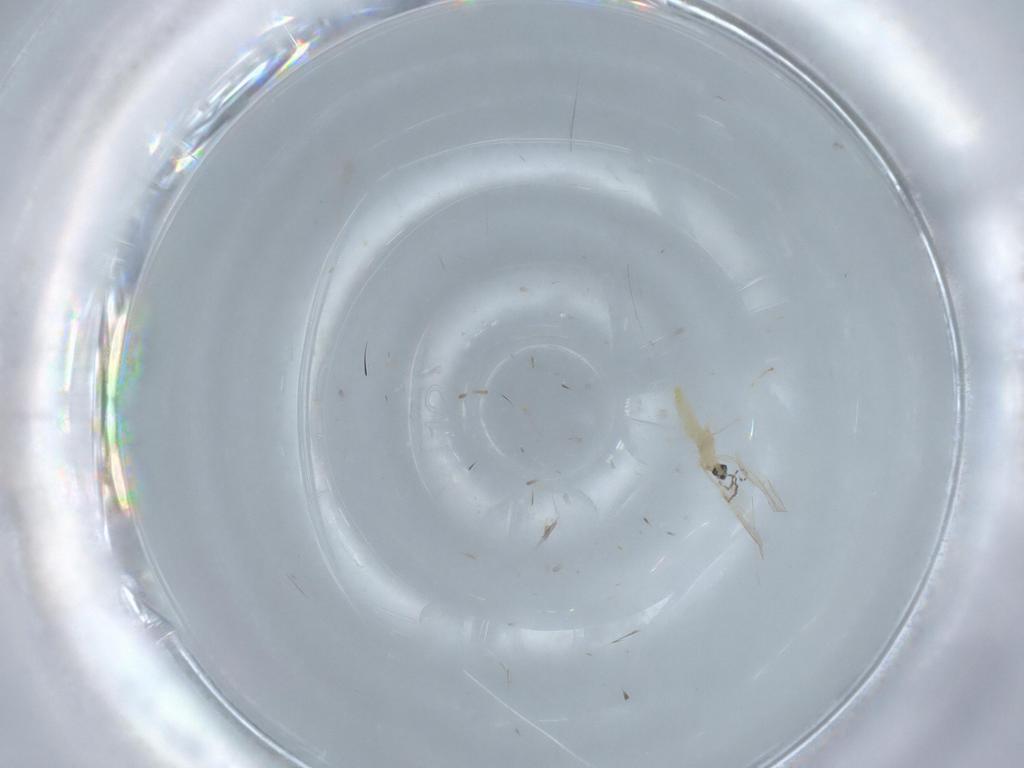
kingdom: Animalia
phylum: Arthropoda
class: Insecta
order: Diptera
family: Cecidomyiidae
